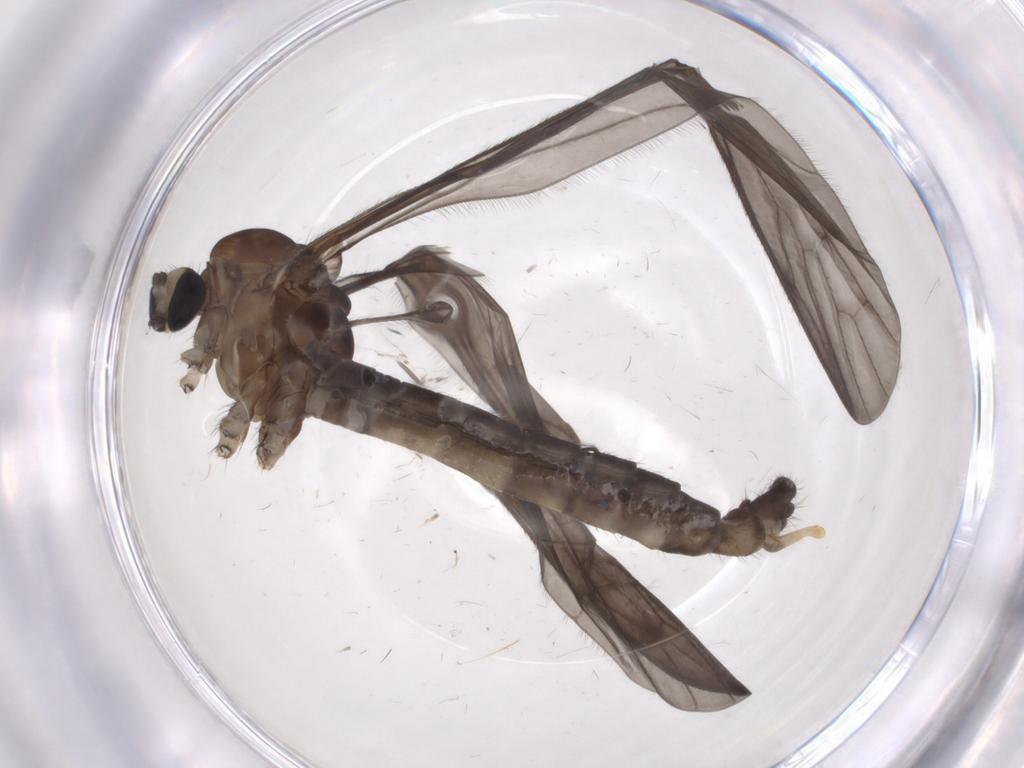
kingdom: Animalia
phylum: Arthropoda
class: Insecta
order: Diptera
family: Limoniidae
